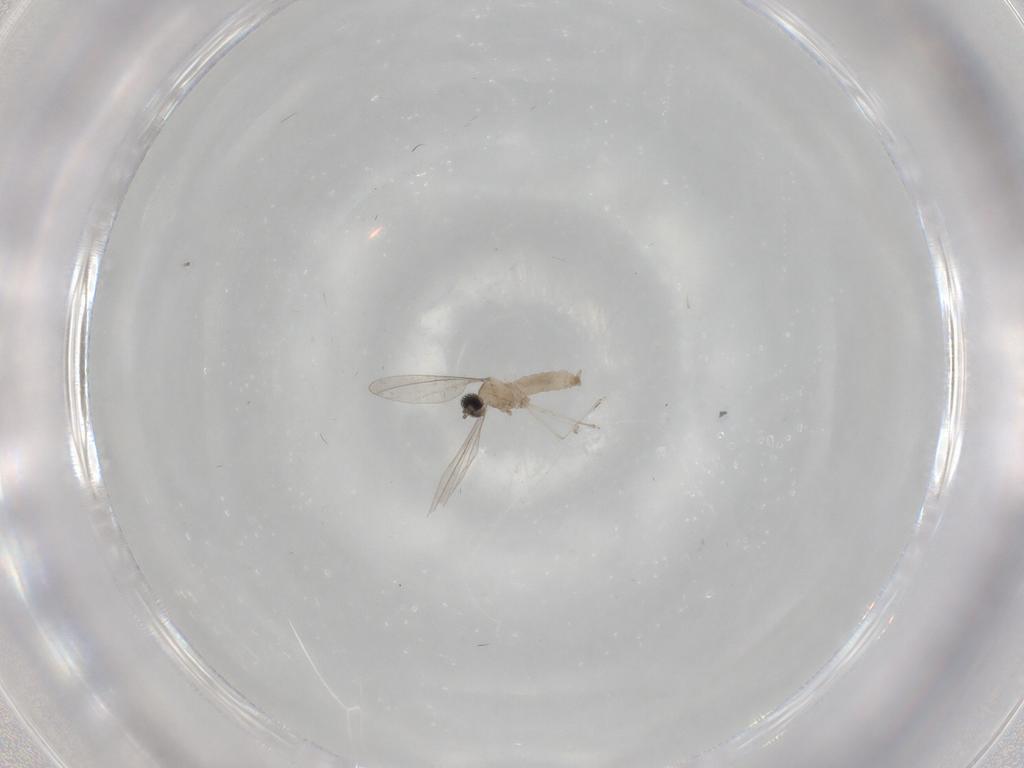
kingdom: Animalia
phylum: Arthropoda
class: Insecta
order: Diptera
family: Cecidomyiidae
